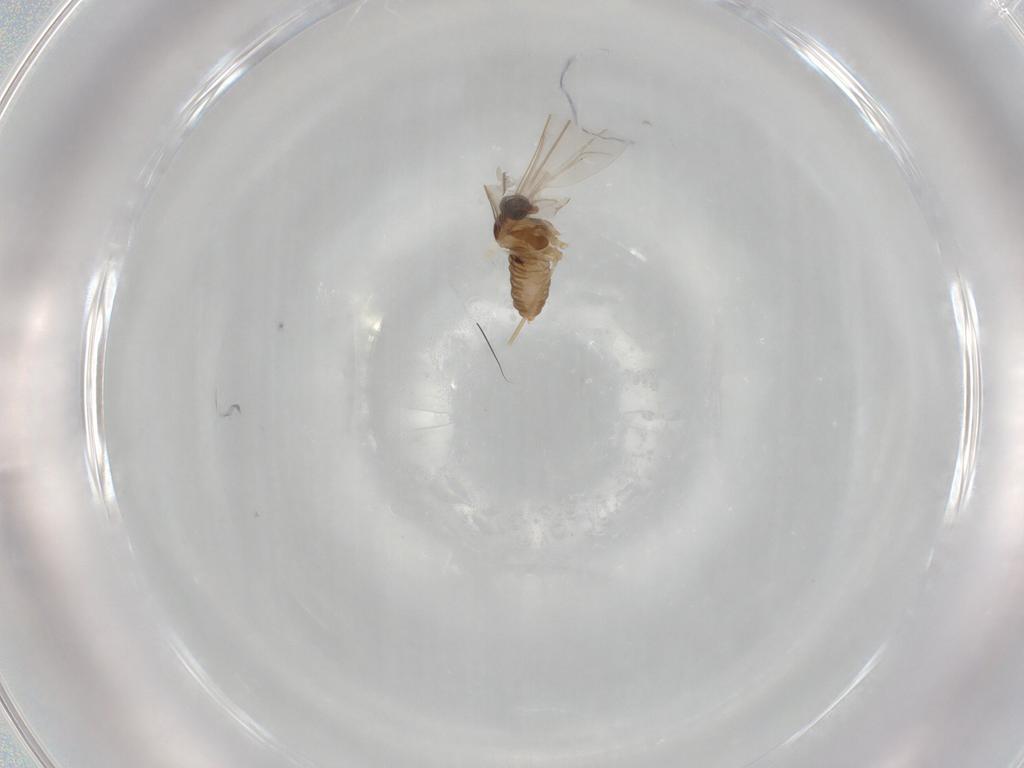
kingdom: Animalia
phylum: Arthropoda
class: Insecta
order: Diptera
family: Cecidomyiidae
